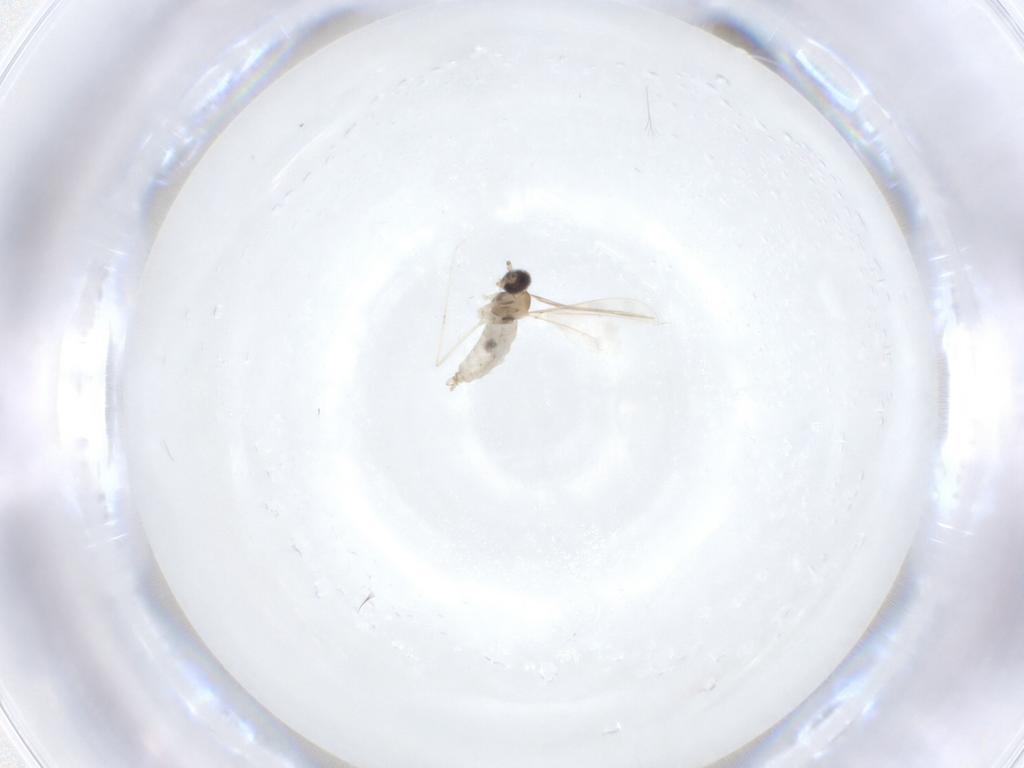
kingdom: Animalia
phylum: Arthropoda
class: Insecta
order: Diptera
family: Cecidomyiidae
